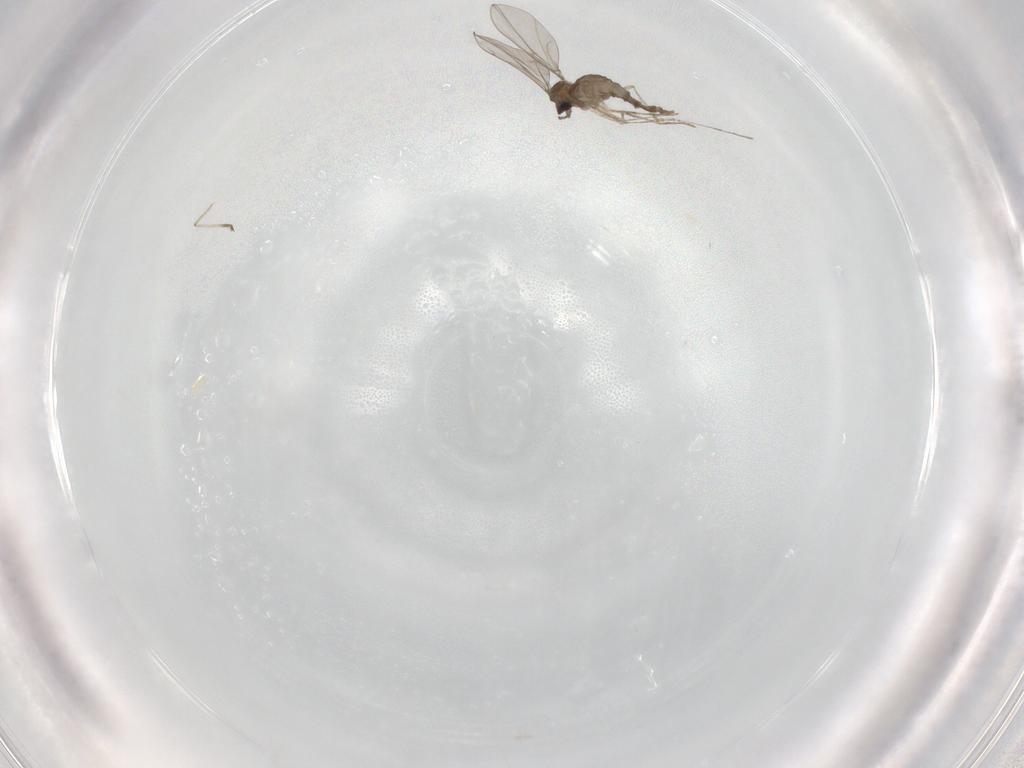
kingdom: Animalia
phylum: Arthropoda
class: Insecta
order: Diptera
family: Cecidomyiidae
